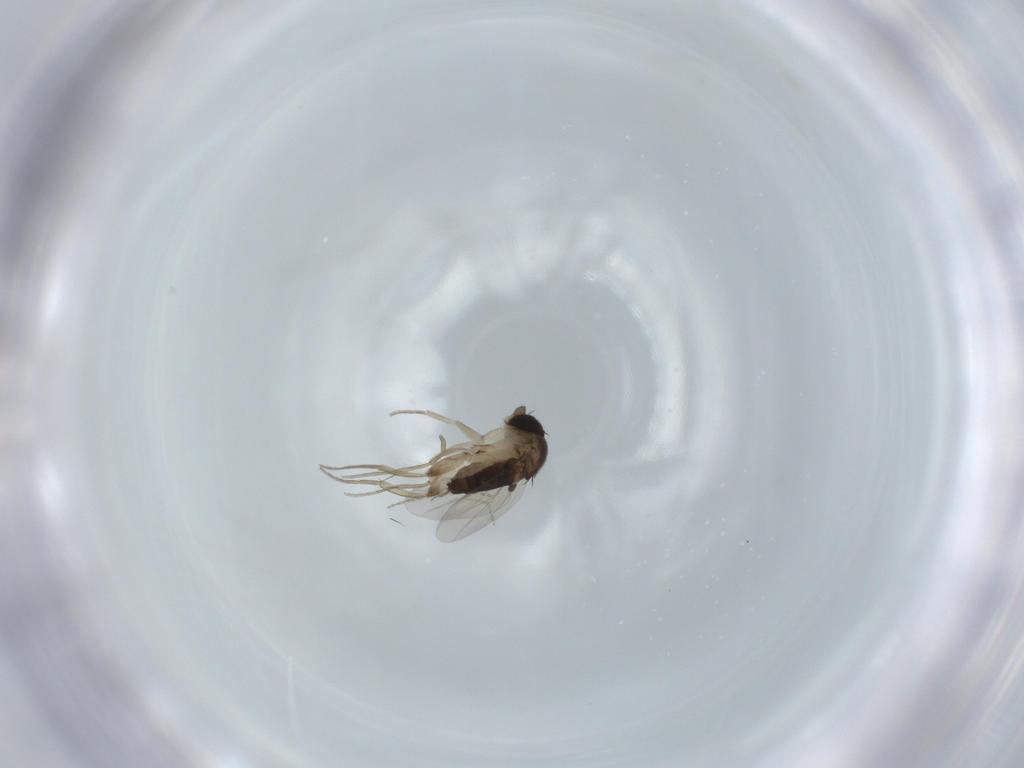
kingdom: Animalia
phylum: Arthropoda
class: Insecta
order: Diptera
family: Cecidomyiidae
